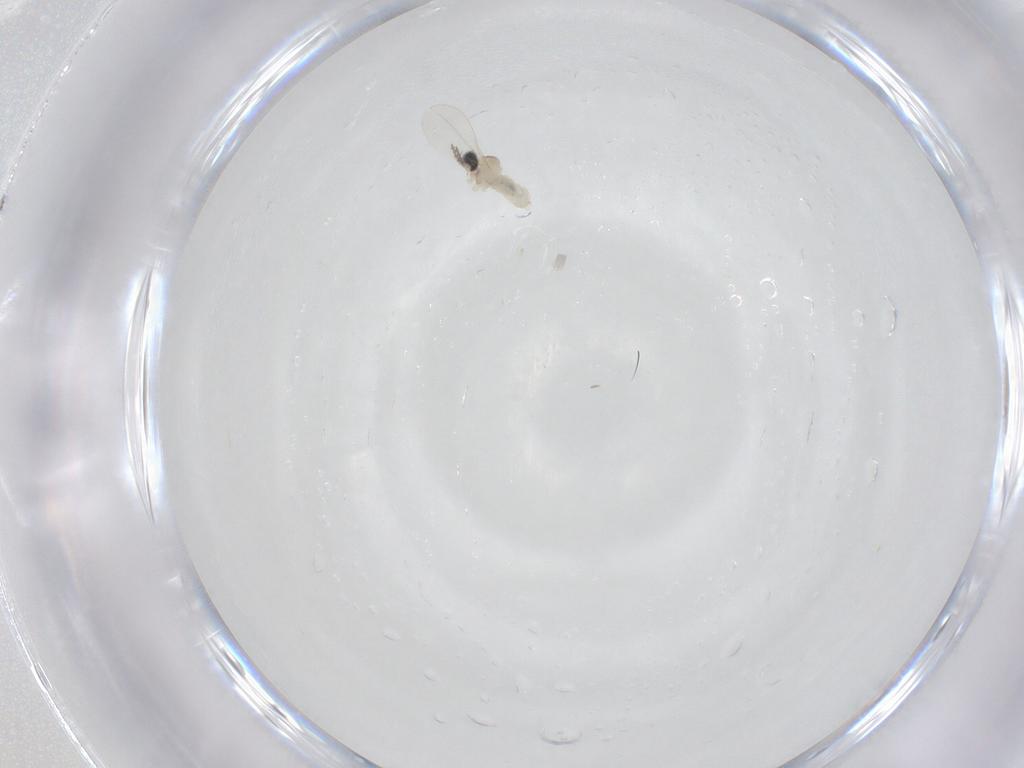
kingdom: Animalia
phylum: Arthropoda
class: Insecta
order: Diptera
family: Cecidomyiidae
